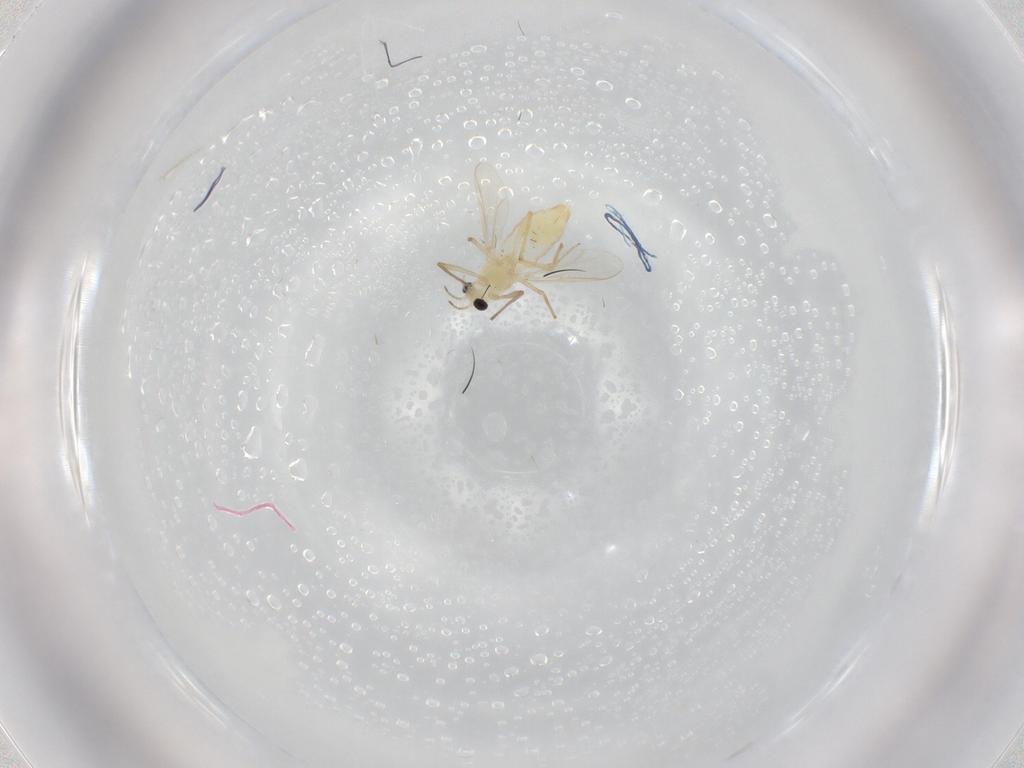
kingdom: Animalia
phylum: Arthropoda
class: Insecta
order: Diptera
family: Chironomidae
